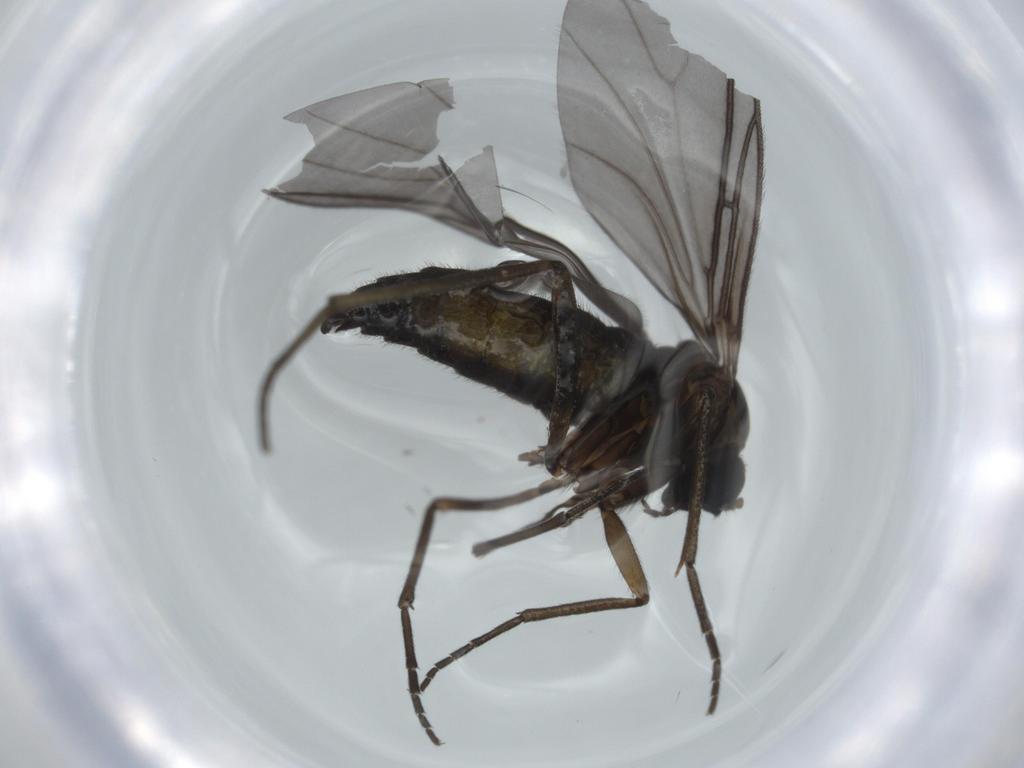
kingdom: Animalia
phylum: Arthropoda
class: Insecta
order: Diptera
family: Sciaridae
